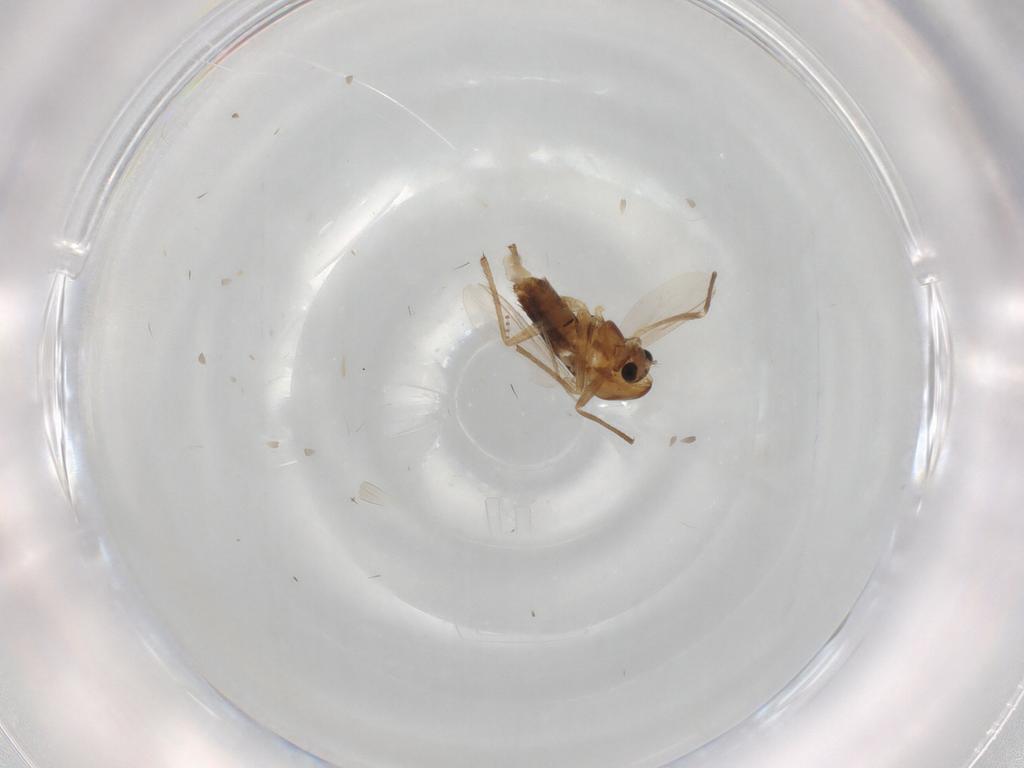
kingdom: Animalia
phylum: Arthropoda
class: Insecta
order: Diptera
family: Chironomidae
